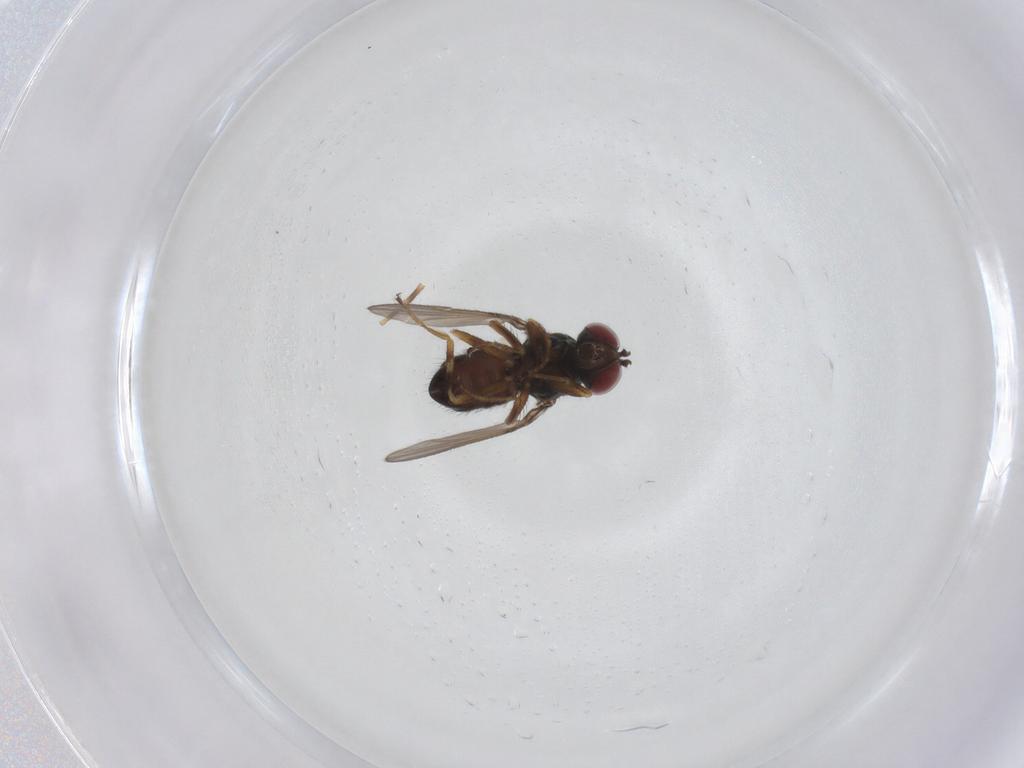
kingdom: Animalia
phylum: Arthropoda
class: Insecta
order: Diptera
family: Ephydridae
